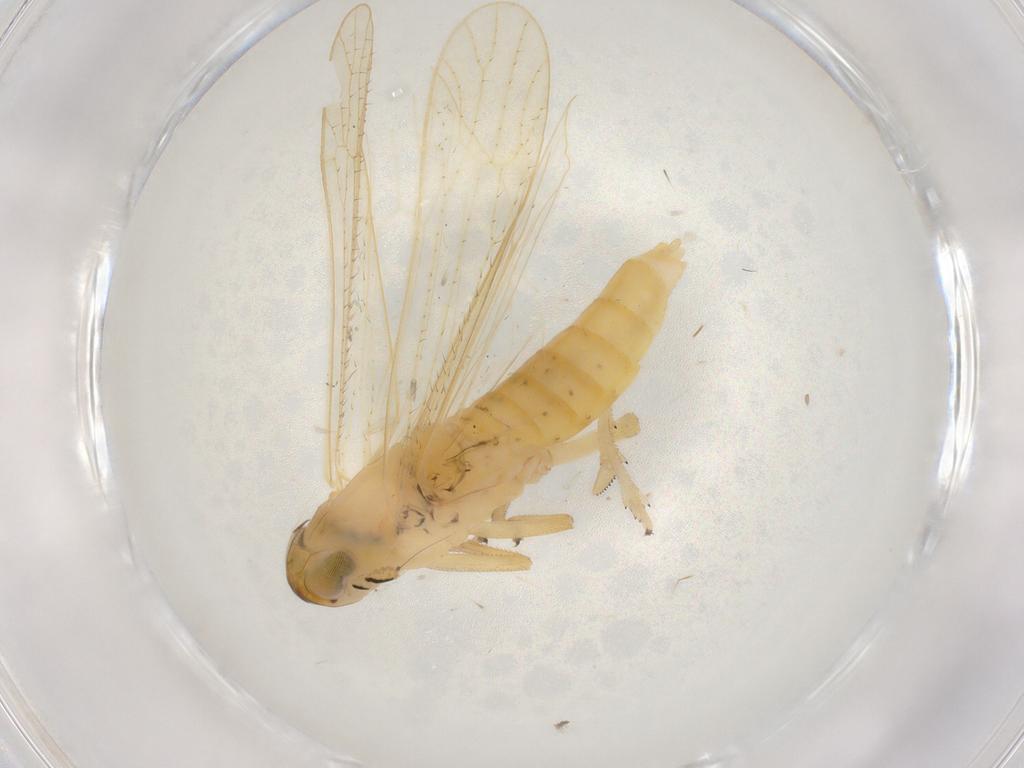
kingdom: Animalia
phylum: Arthropoda
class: Insecta
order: Hemiptera
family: Delphacidae
